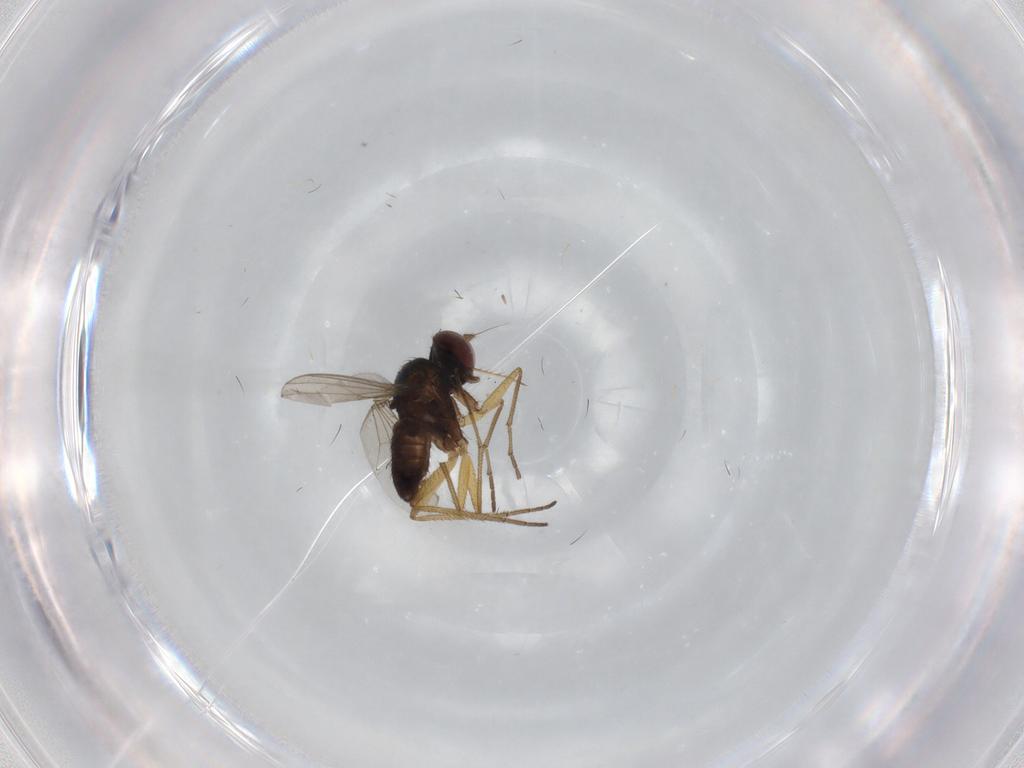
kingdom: Animalia
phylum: Arthropoda
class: Insecta
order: Diptera
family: Dolichopodidae
